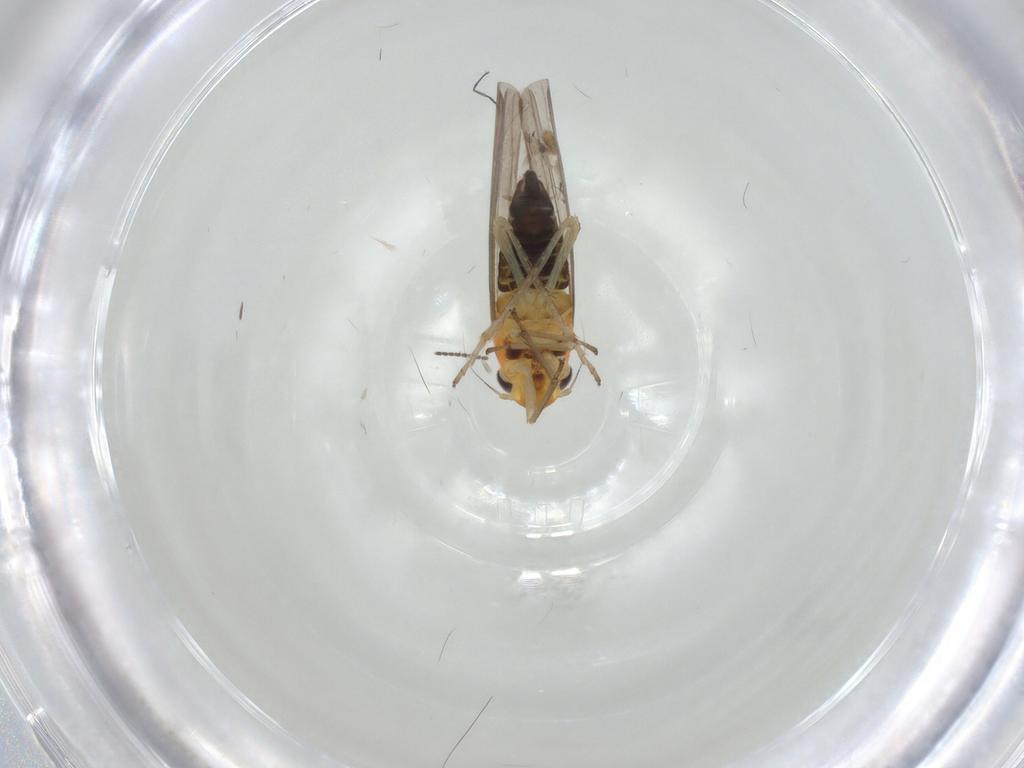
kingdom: Animalia
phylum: Arthropoda
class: Insecta
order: Hemiptera
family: Cicadellidae
